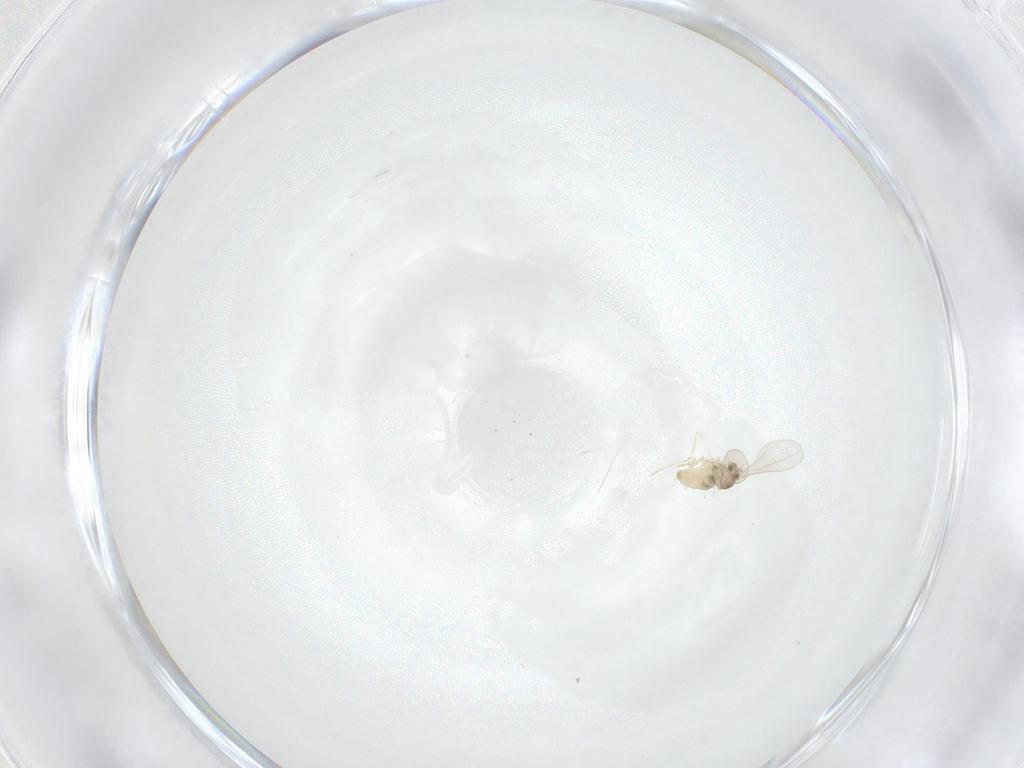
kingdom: Animalia
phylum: Arthropoda
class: Insecta
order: Diptera
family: Cecidomyiidae
